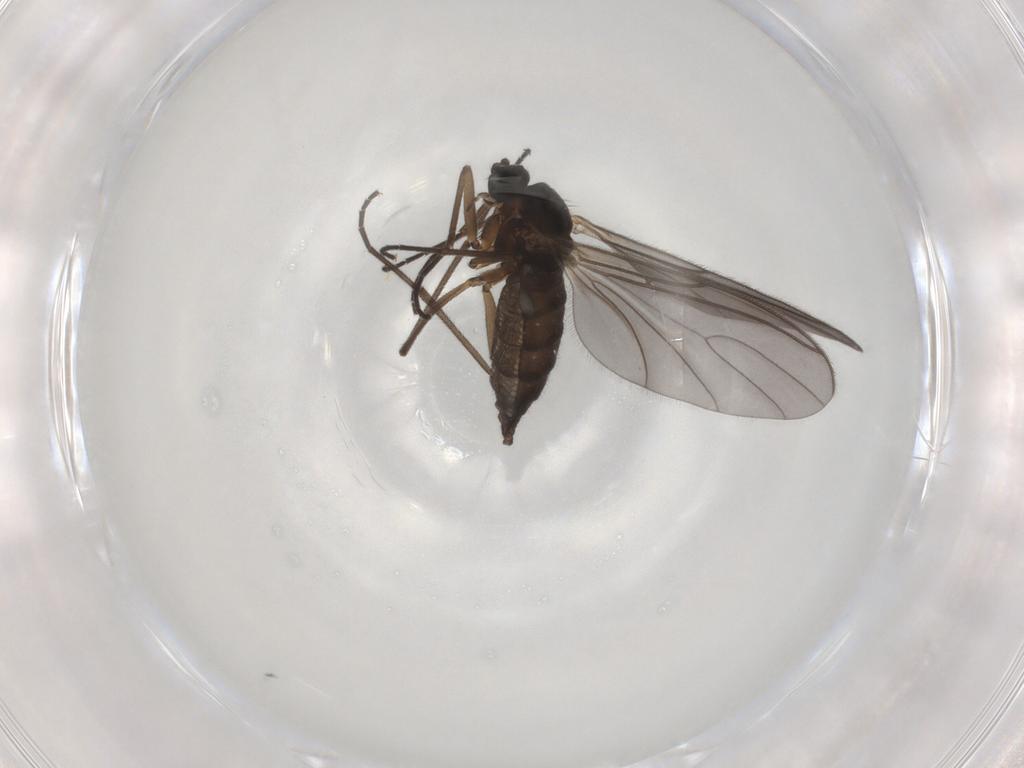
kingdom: Animalia
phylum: Arthropoda
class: Insecta
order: Diptera
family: Sciaridae
